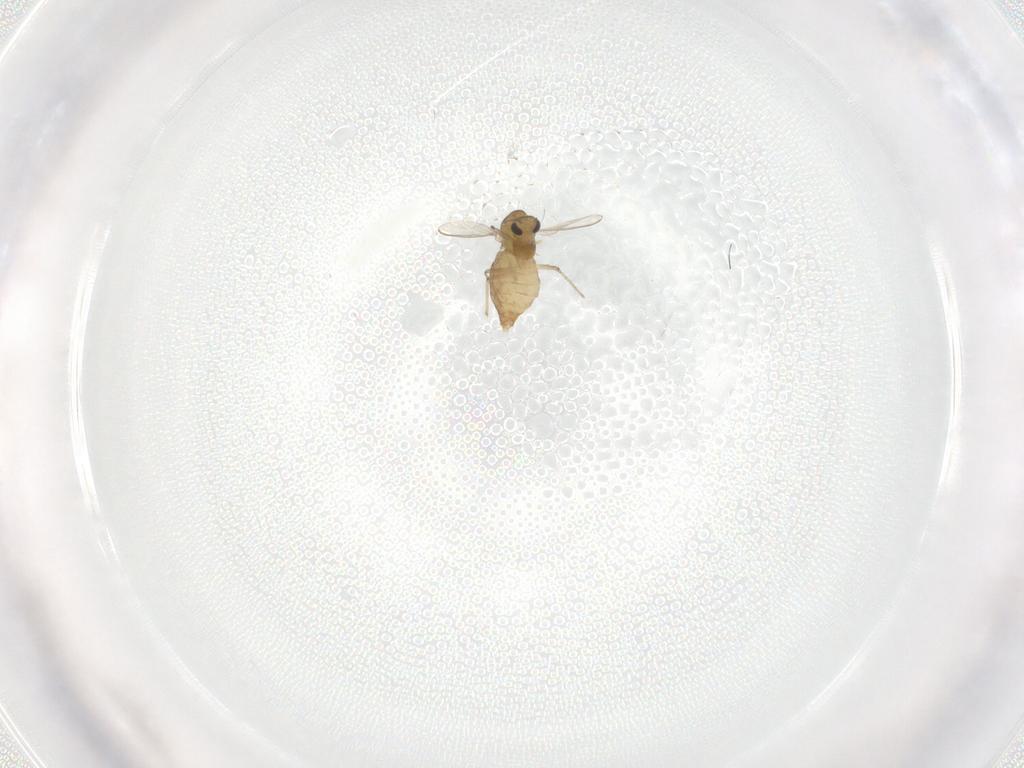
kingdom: Animalia
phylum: Arthropoda
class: Insecta
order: Diptera
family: Chironomidae
